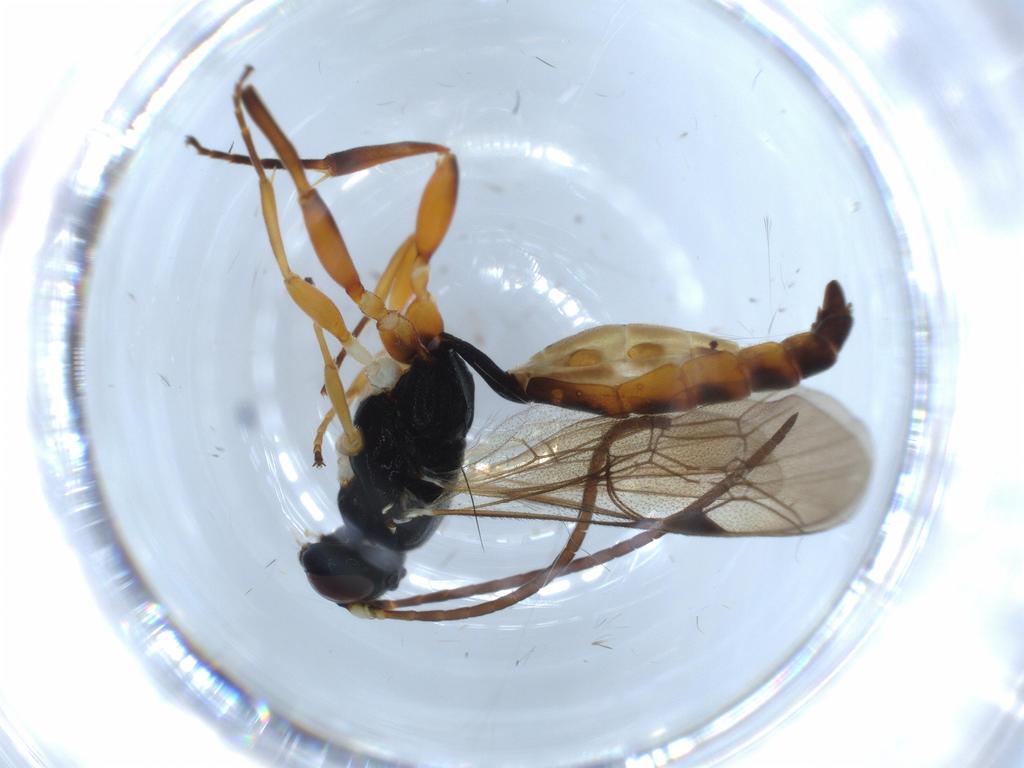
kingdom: Animalia
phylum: Arthropoda
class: Insecta
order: Hymenoptera
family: Ichneumonidae
